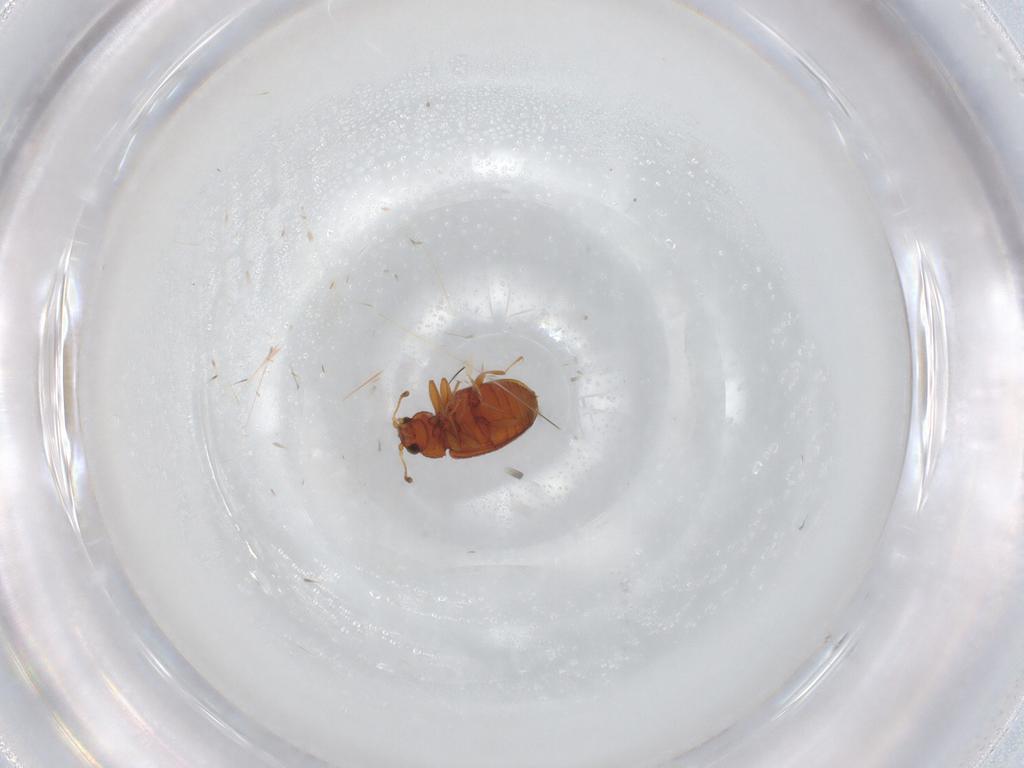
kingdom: Animalia
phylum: Arthropoda
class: Insecta
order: Coleoptera
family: Latridiidae
